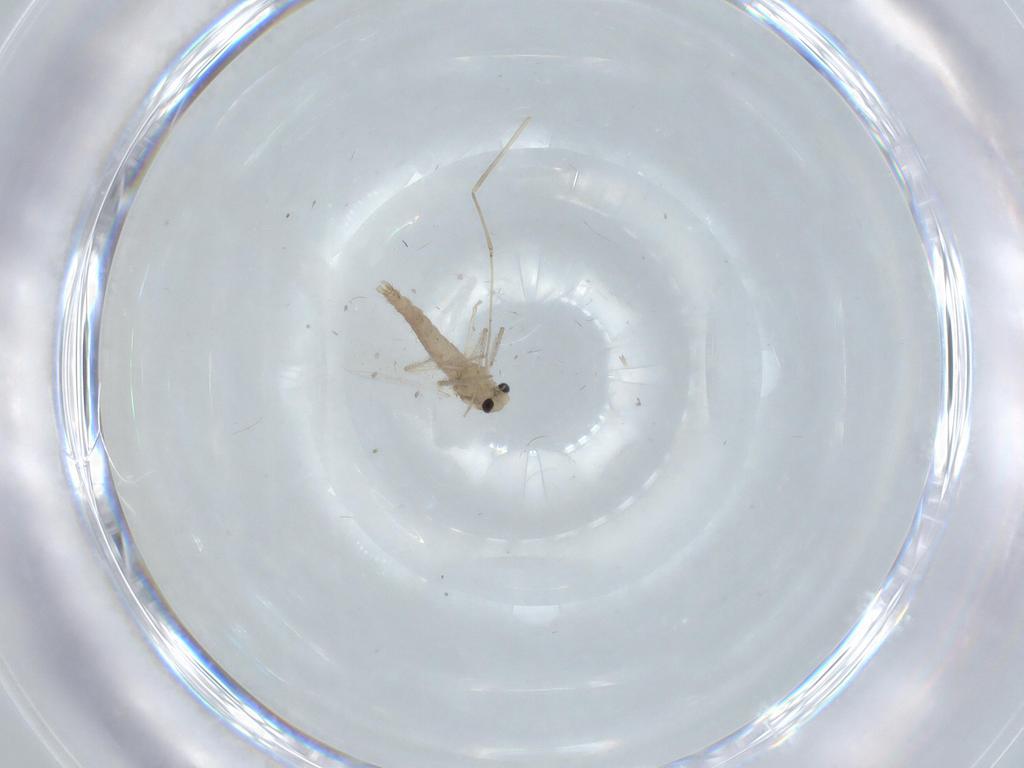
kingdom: Animalia
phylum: Arthropoda
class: Insecta
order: Diptera
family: Chironomidae
